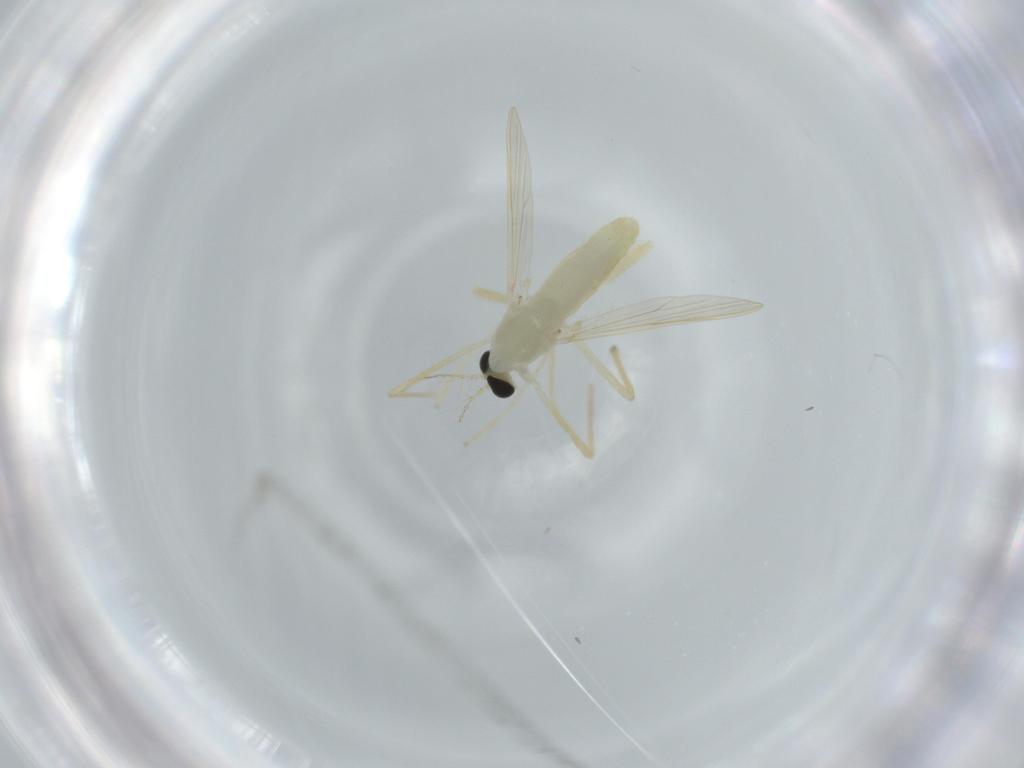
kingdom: Animalia
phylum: Arthropoda
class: Insecta
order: Diptera
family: Chironomidae
